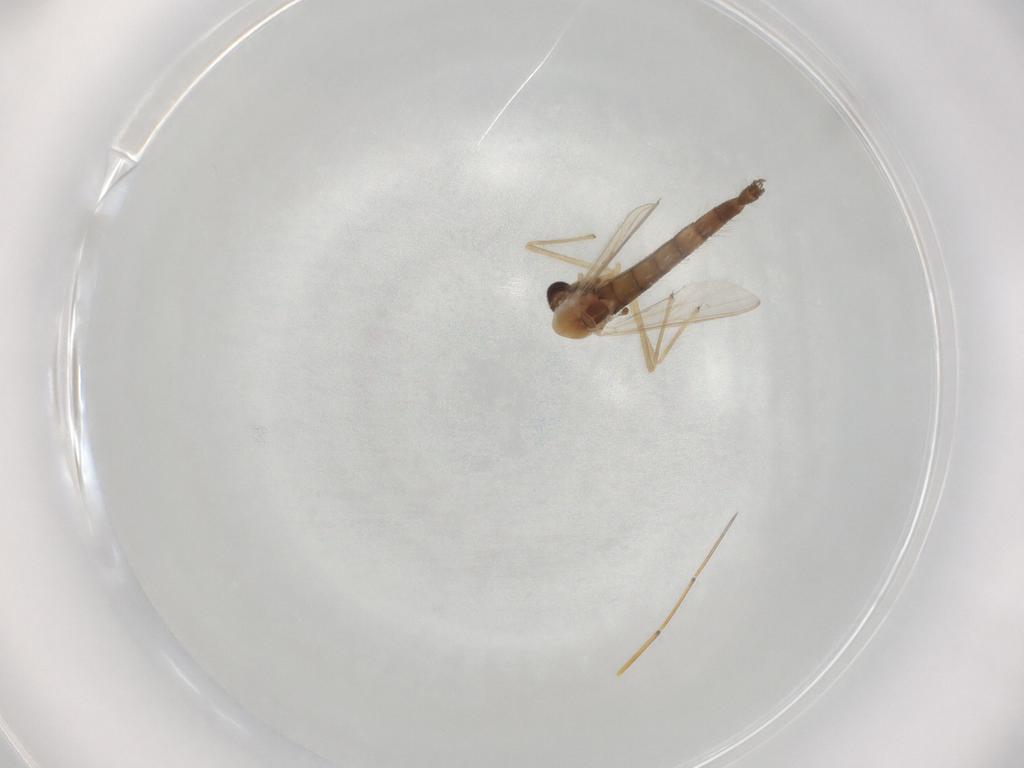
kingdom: Animalia
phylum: Arthropoda
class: Insecta
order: Diptera
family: Chironomidae
